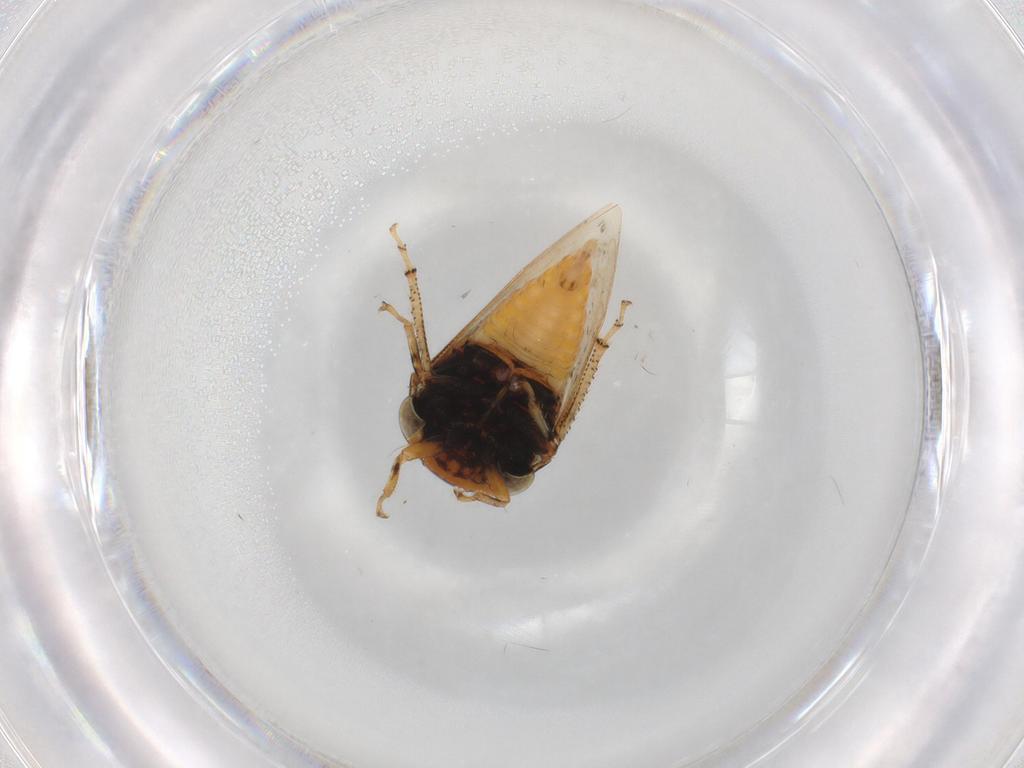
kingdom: Animalia
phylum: Arthropoda
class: Insecta
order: Hemiptera
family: Membracidae
